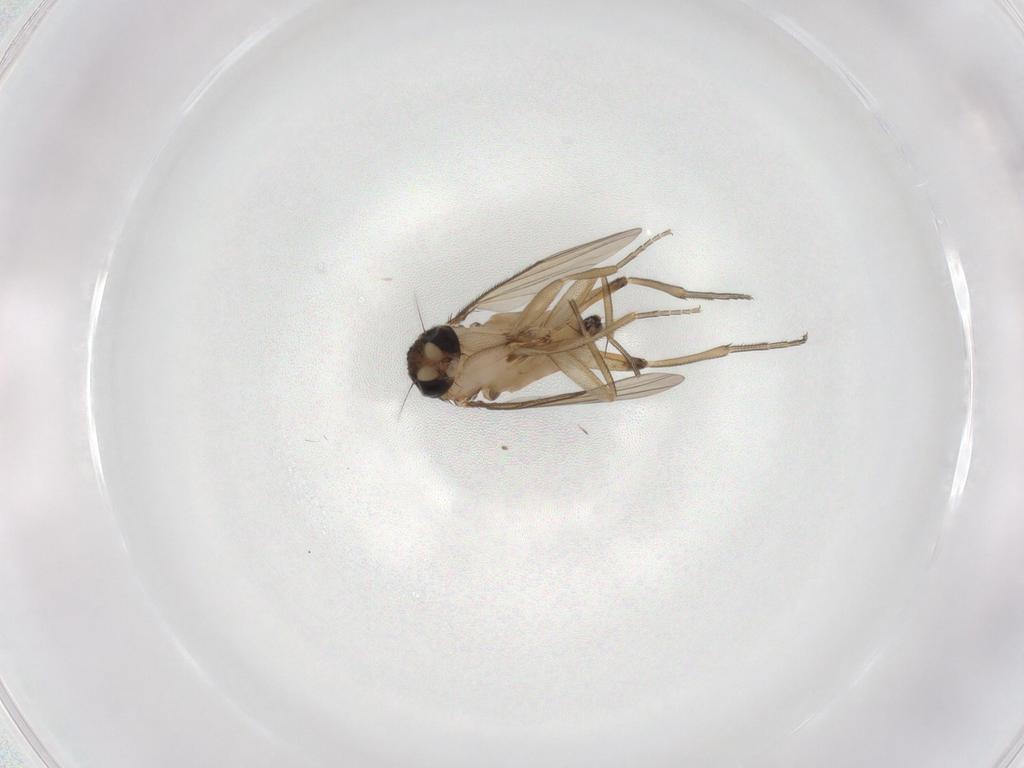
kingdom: Animalia
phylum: Arthropoda
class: Insecta
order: Diptera
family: Phoridae
